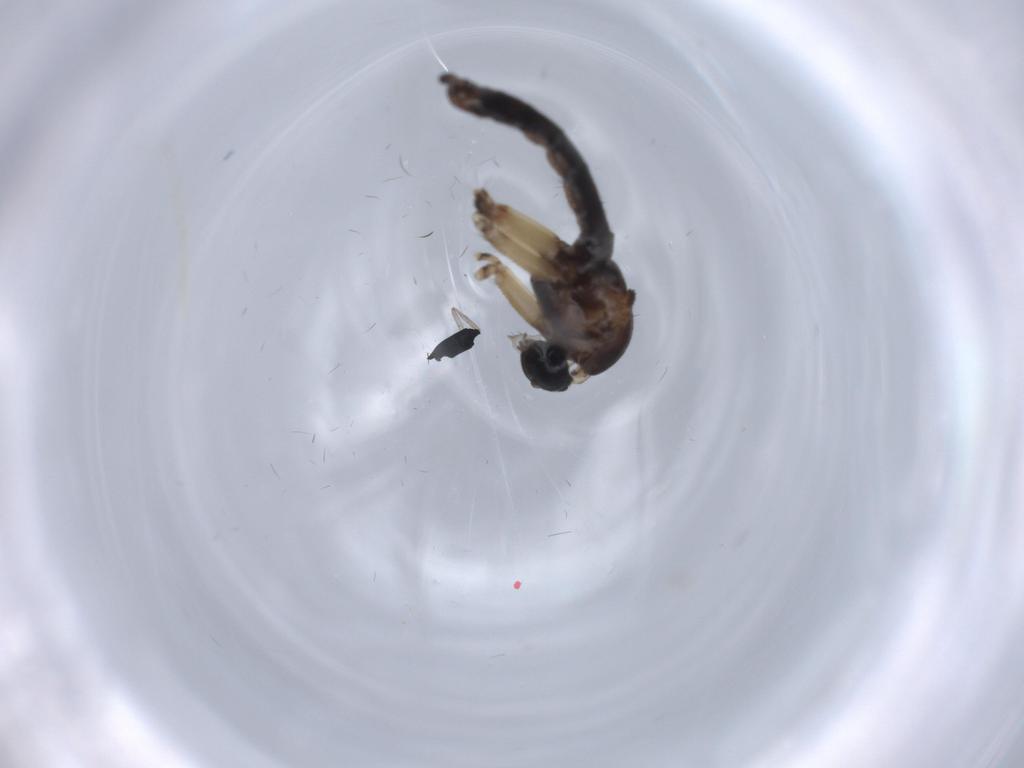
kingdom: Animalia
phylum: Arthropoda
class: Insecta
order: Diptera
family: Sciaridae
